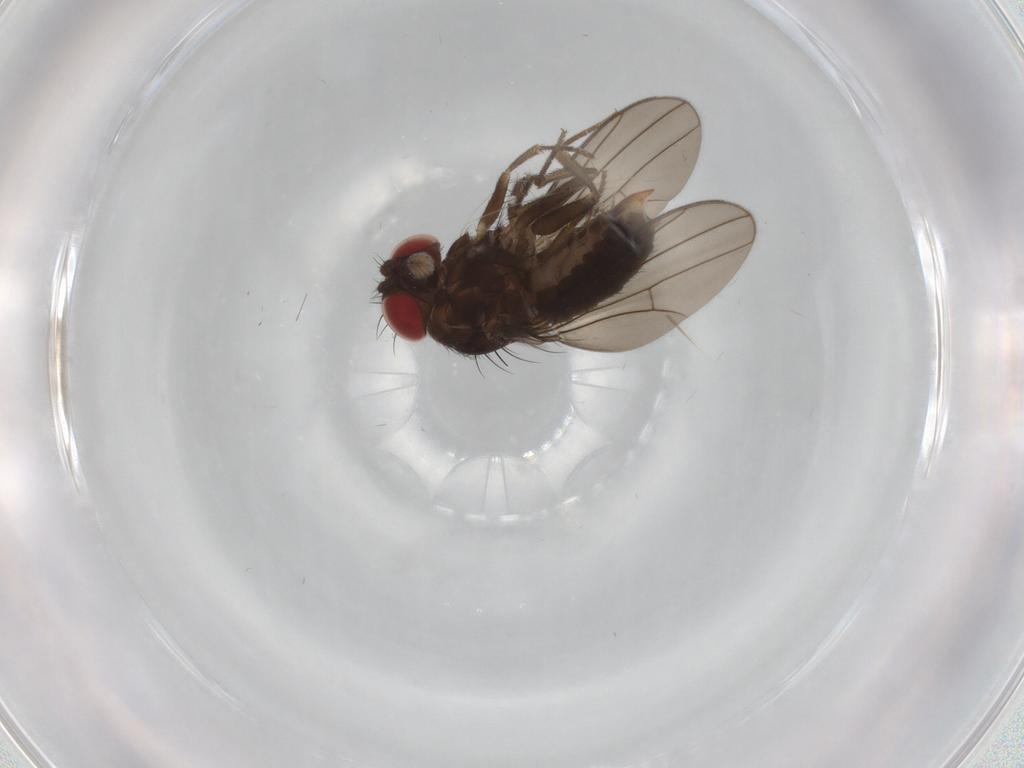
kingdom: Animalia
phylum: Arthropoda
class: Insecta
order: Diptera
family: Drosophilidae
